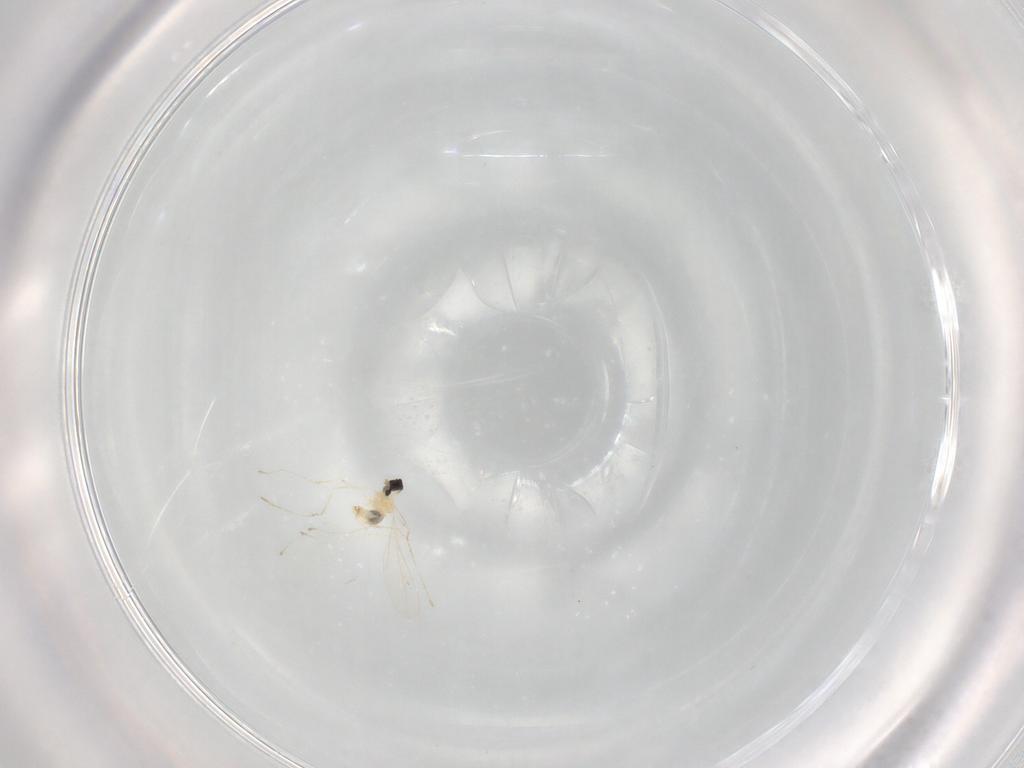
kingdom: Animalia
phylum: Arthropoda
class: Insecta
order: Diptera
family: Cecidomyiidae
